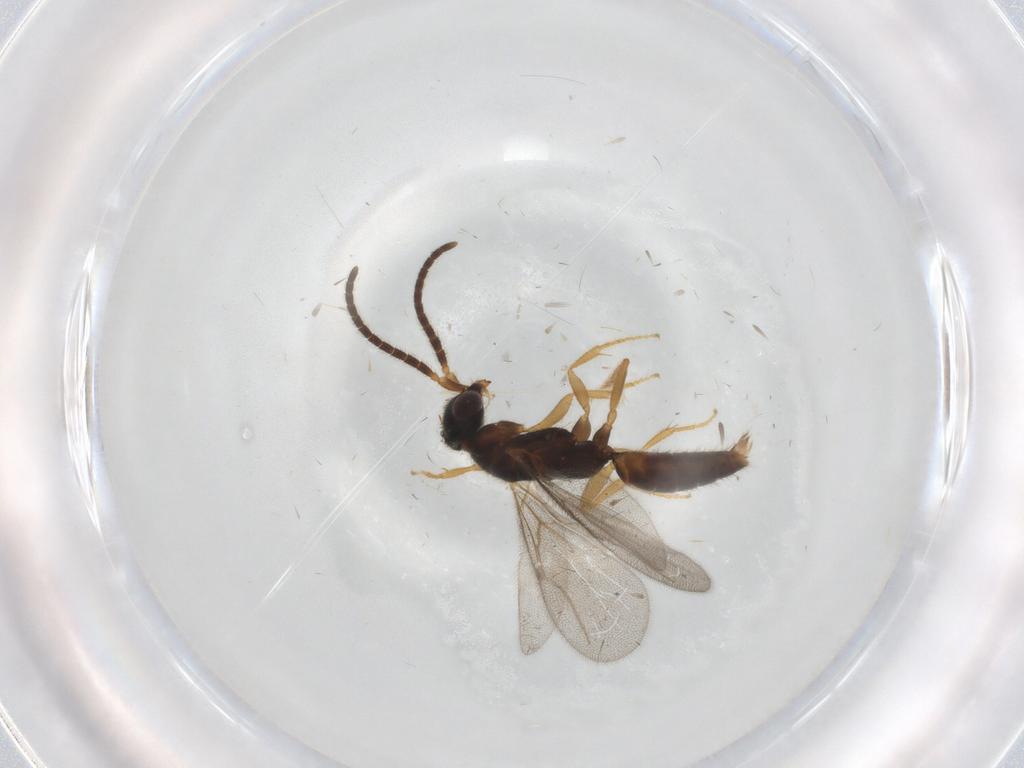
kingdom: Animalia
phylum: Arthropoda
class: Insecta
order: Hymenoptera
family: Bethylidae
